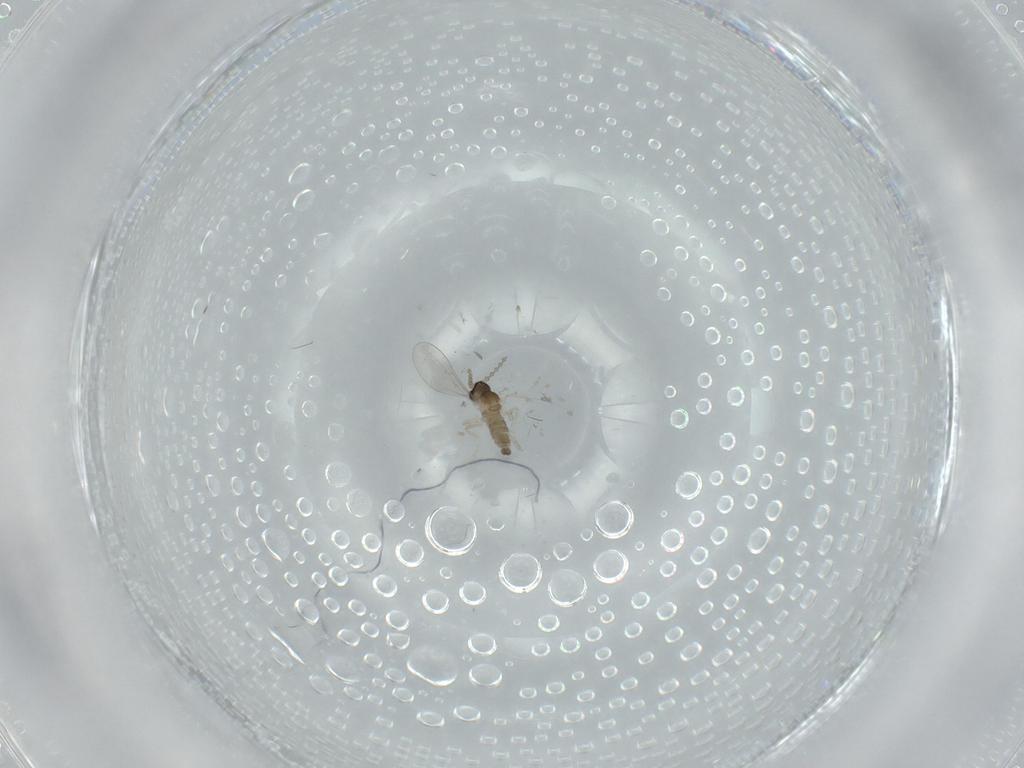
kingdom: Animalia
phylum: Arthropoda
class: Insecta
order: Diptera
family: Cecidomyiidae
